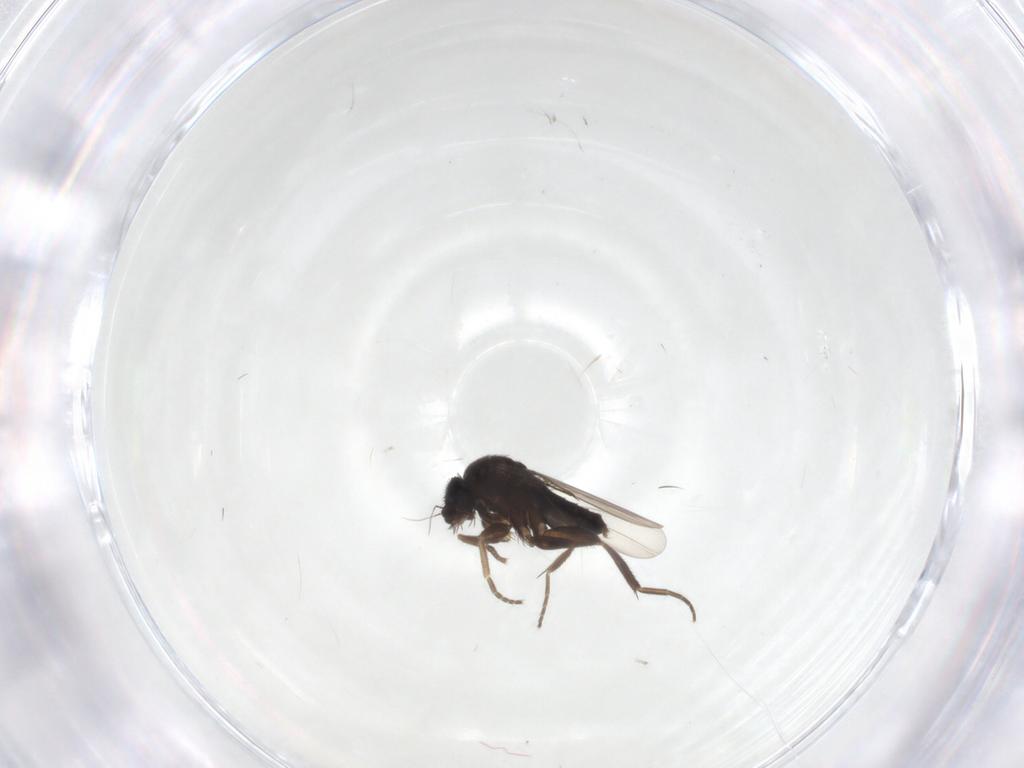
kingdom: Animalia
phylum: Arthropoda
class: Insecta
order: Diptera
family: Phoridae
